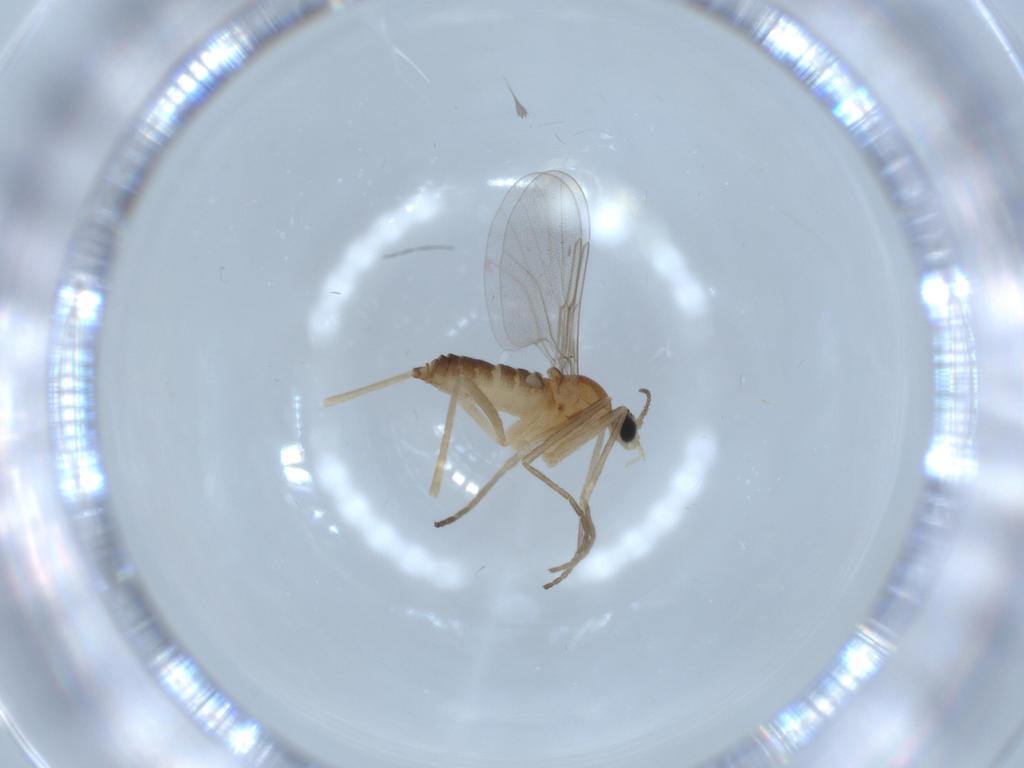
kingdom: Animalia
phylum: Arthropoda
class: Insecta
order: Diptera
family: Cecidomyiidae
